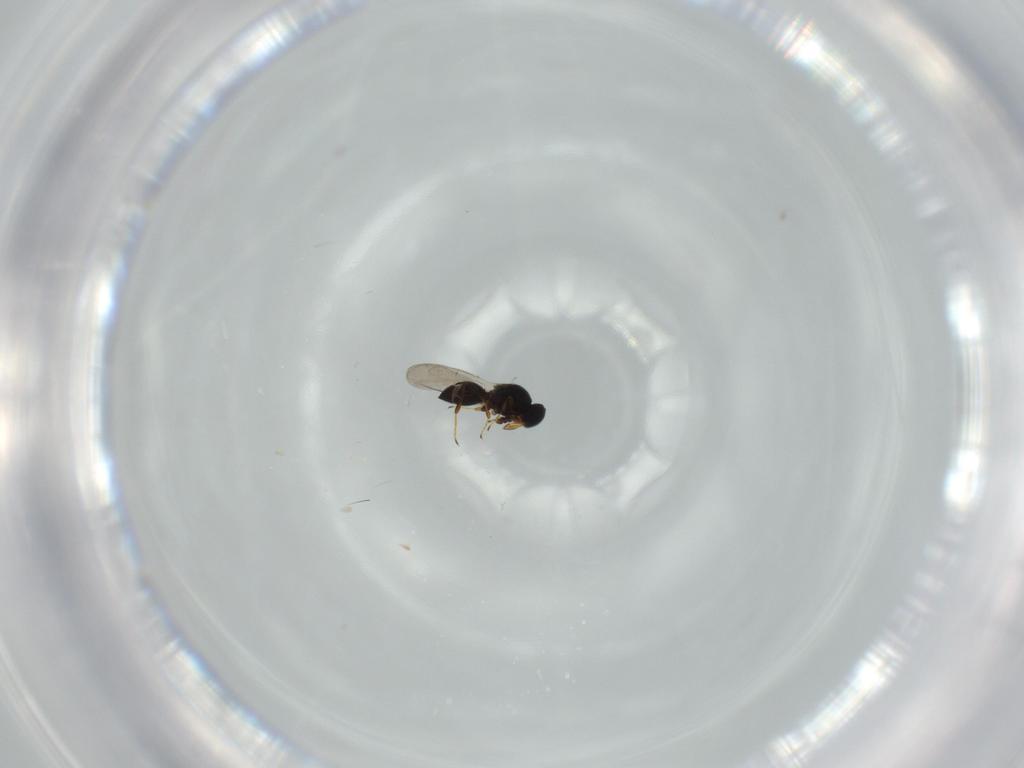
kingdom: Animalia
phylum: Arthropoda
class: Insecta
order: Hymenoptera
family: Platygastridae
